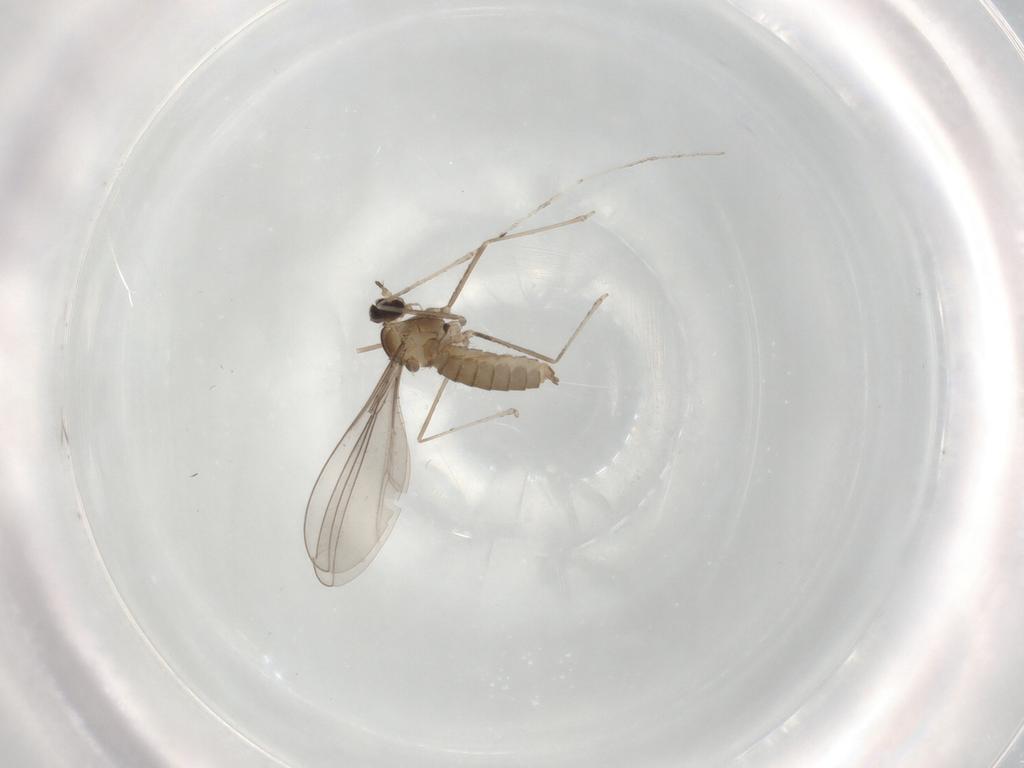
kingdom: Animalia
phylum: Arthropoda
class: Insecta
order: Diptera
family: Cecidomyiidae
